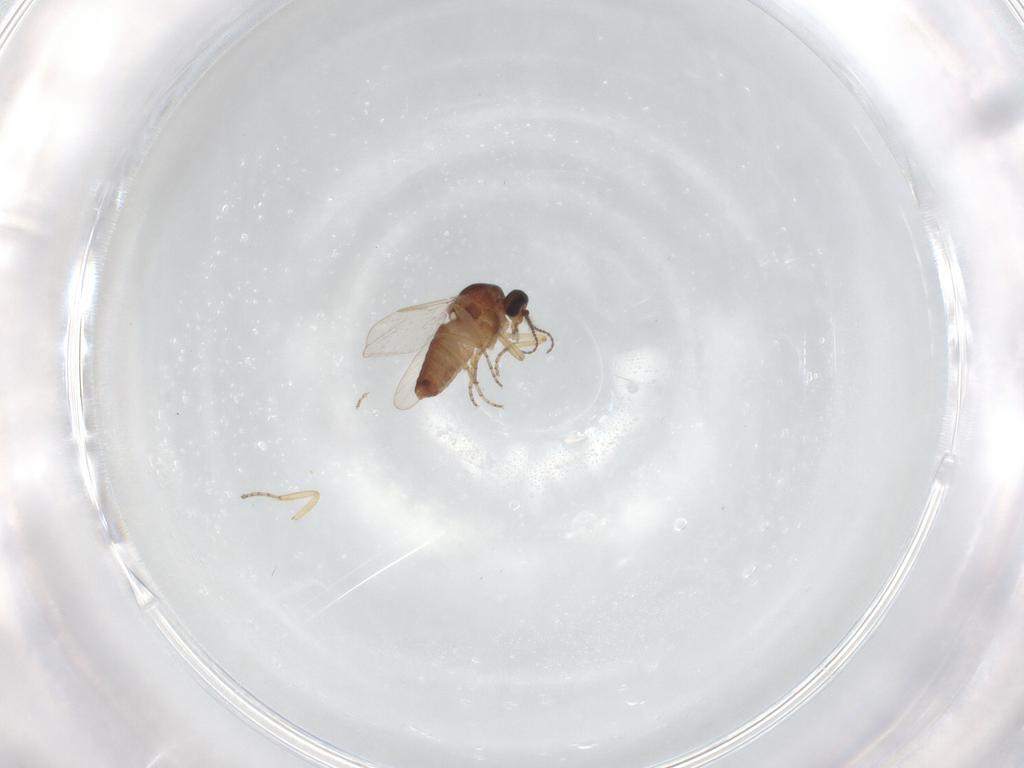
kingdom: Animalia
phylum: Arthropoda
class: Insecta
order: Diptera
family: Ceratopogonidae
